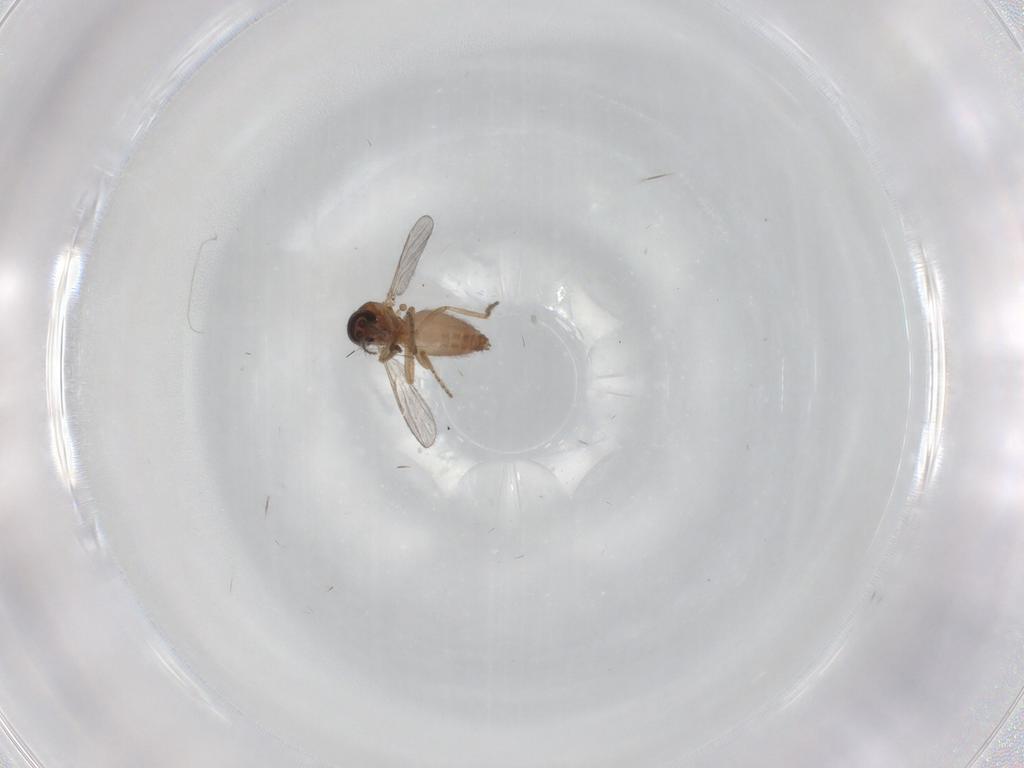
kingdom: Animalia
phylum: Arthropoda
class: Insecta
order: Diptera
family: Ceratopogonidae
